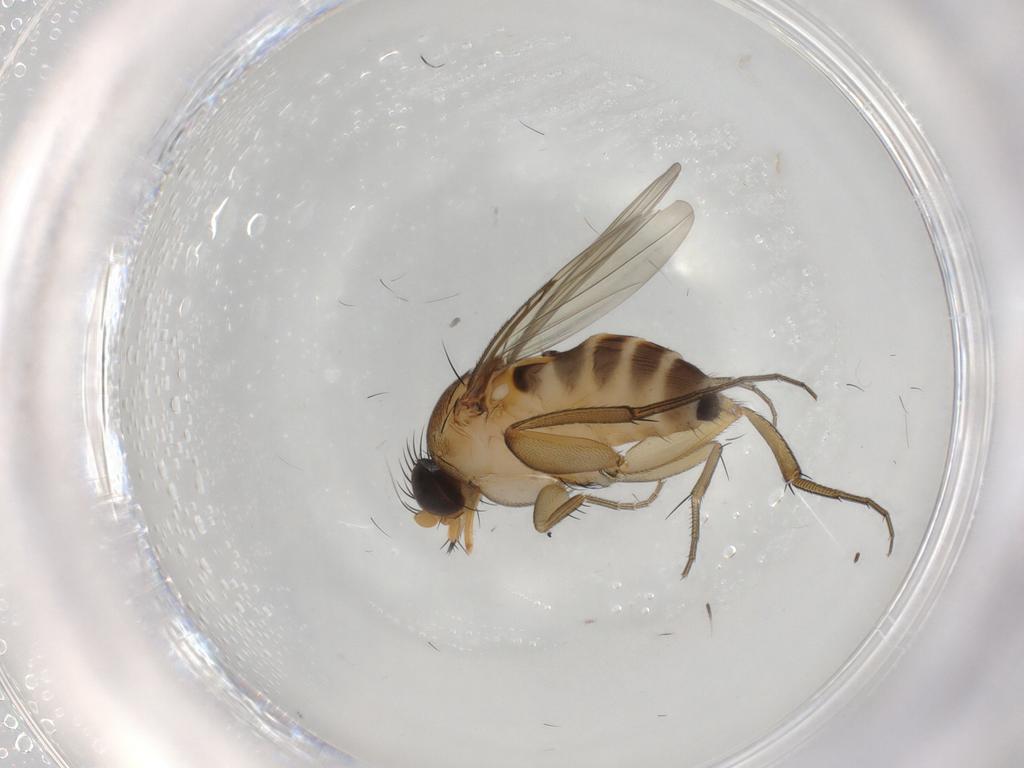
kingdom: Animalia
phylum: Arthropoda
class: Insecta
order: Diptera
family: Chironomidae
